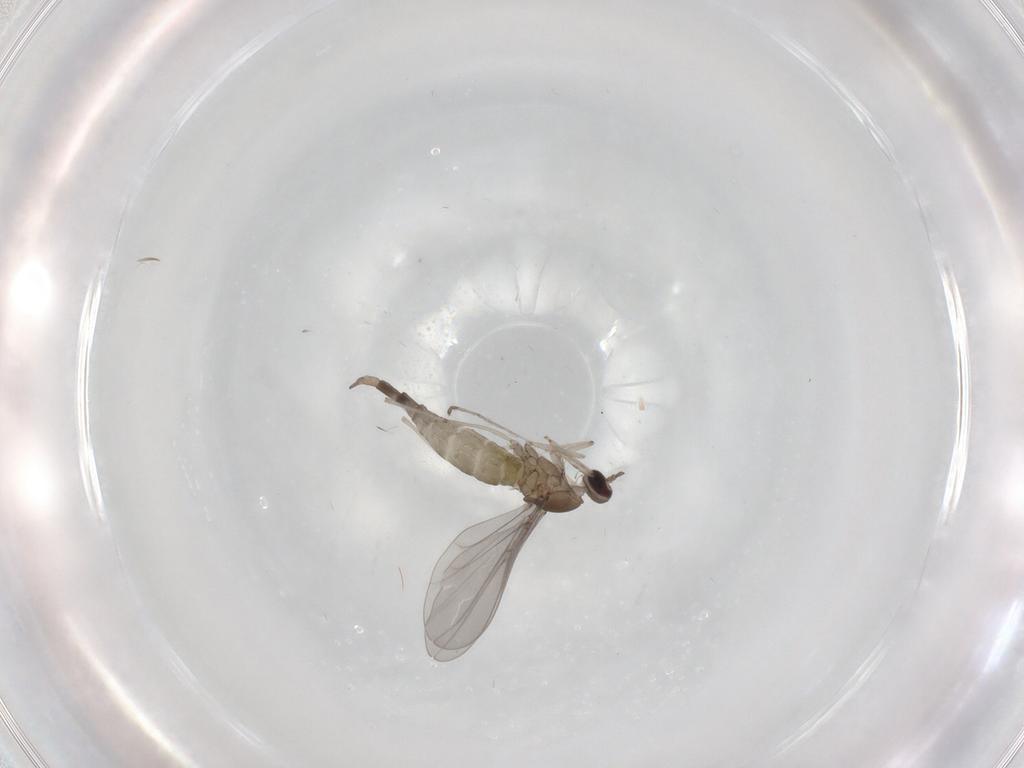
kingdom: Animalia
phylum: Arthropoda
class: Insecta
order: Diptera
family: Cecidomyiidae
